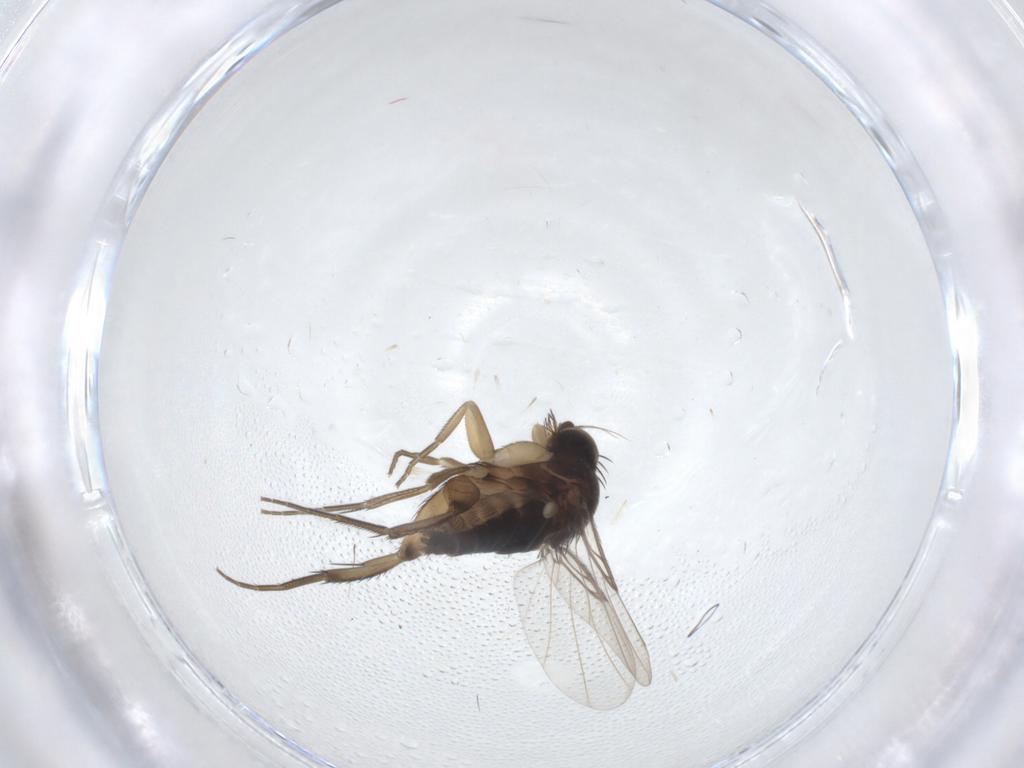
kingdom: Animalia
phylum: Arthropoda
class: Insecta
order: Diptera
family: Phoridae
